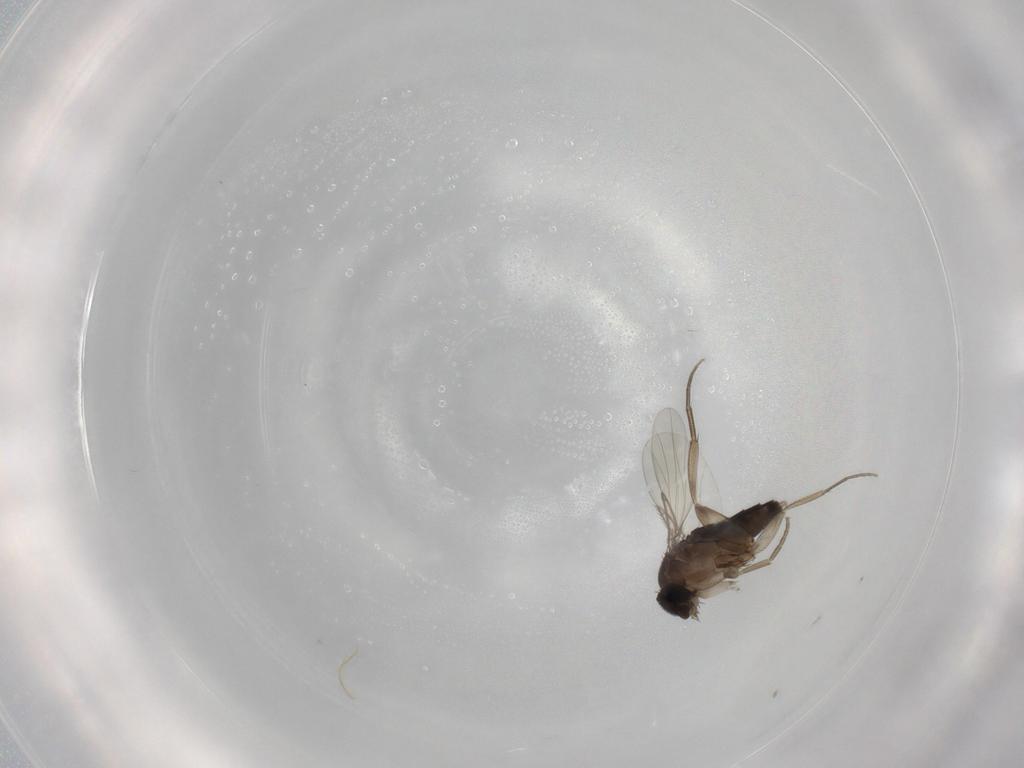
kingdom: Animalia
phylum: Arthropoda
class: Insecta
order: Diptera
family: Phoridae
